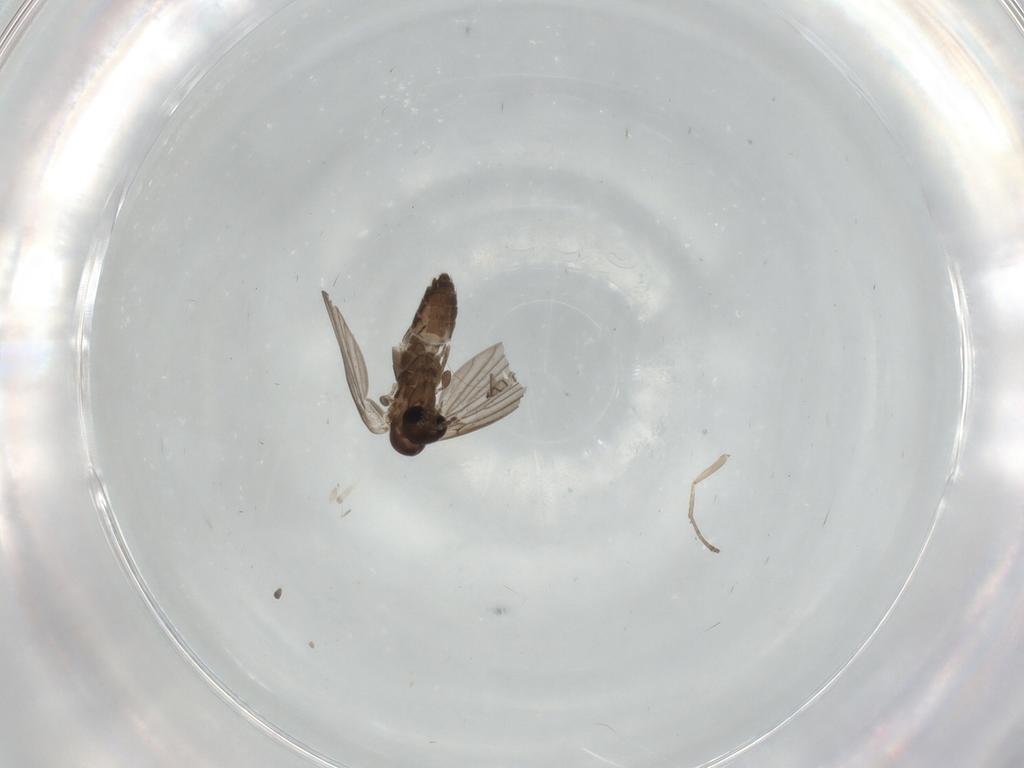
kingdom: Animalia
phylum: Arthropoda
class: Insecta
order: Diptera
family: Stratiomyidae
